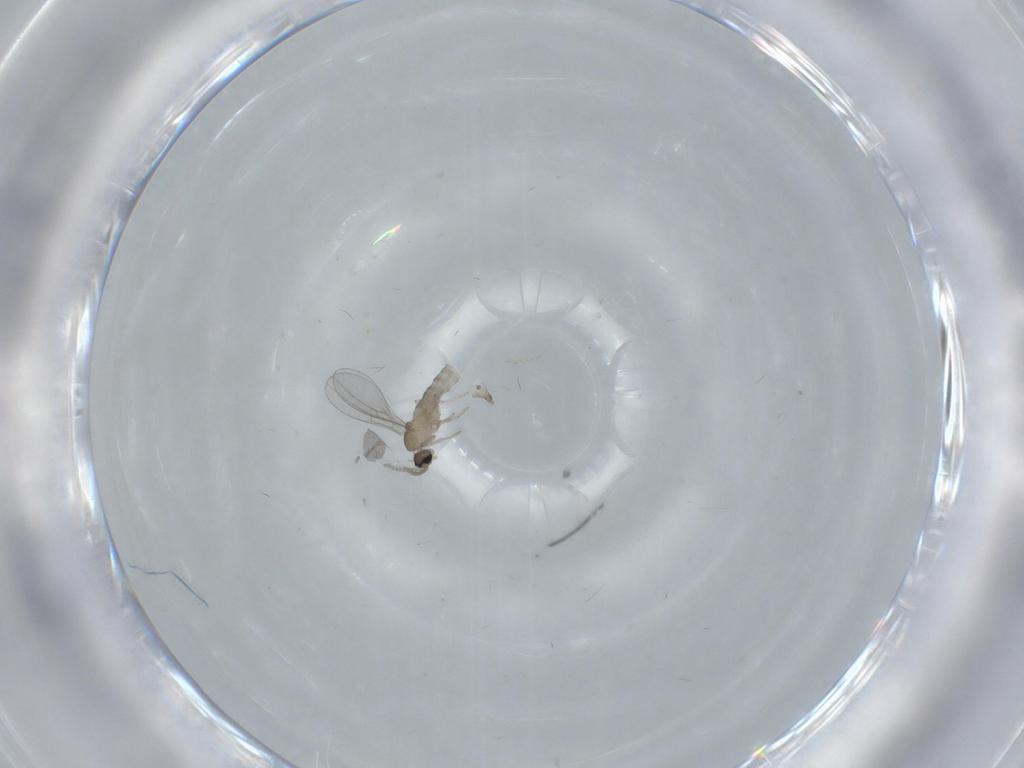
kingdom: Animalia
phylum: Arthropoda
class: Insecta
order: Diptera
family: Cecidomyiidae
